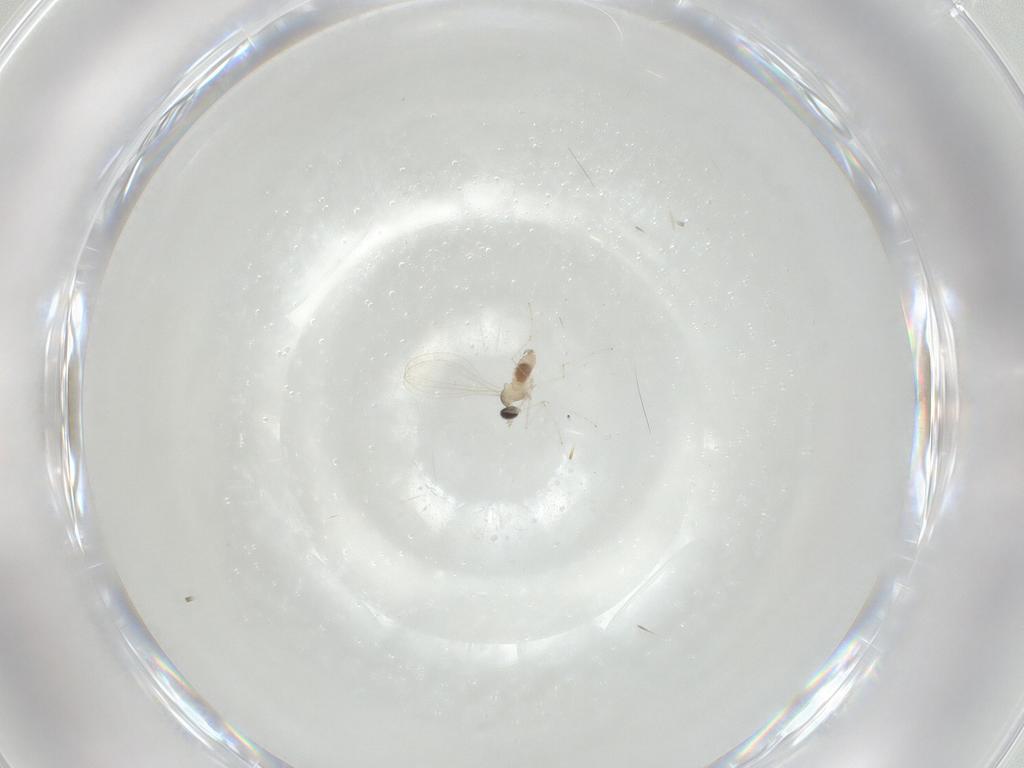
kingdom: Animalia
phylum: Arthropoda
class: Insecta
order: Diptera
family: Cecidomyiidae
